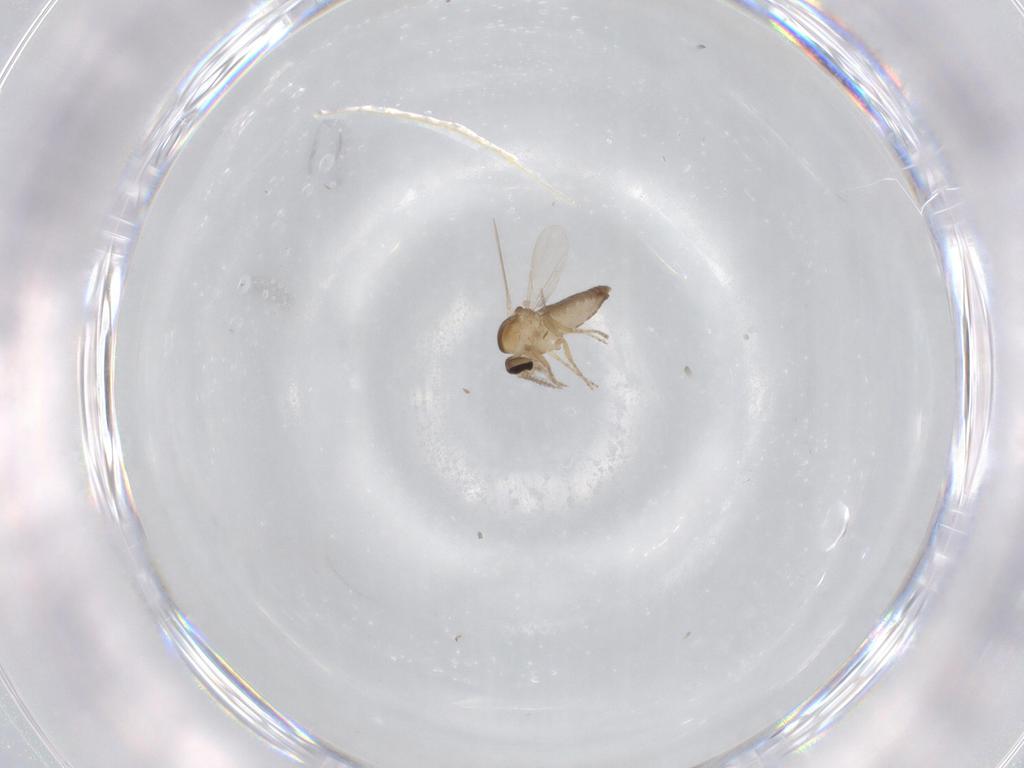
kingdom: Animalia
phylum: Arthropoda
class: Insecta
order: Diptera
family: Ceratopogonidae
